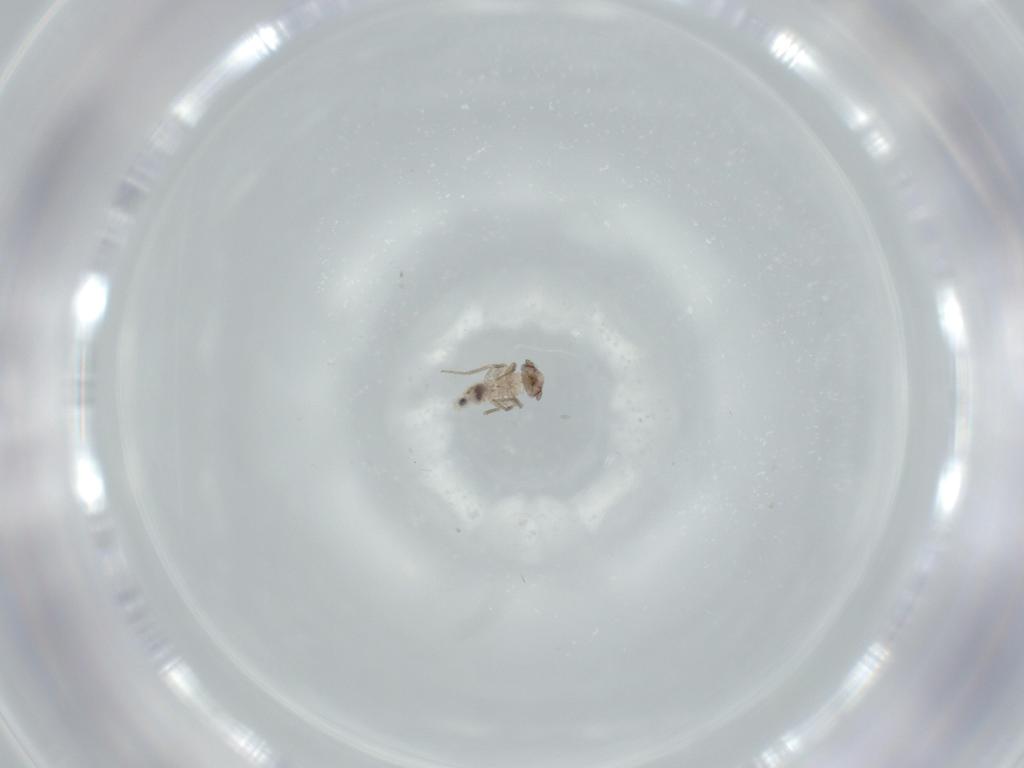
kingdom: Animalia
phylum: Arthropoda
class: Insecta
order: Psocodea
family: Lepidopsocidae
